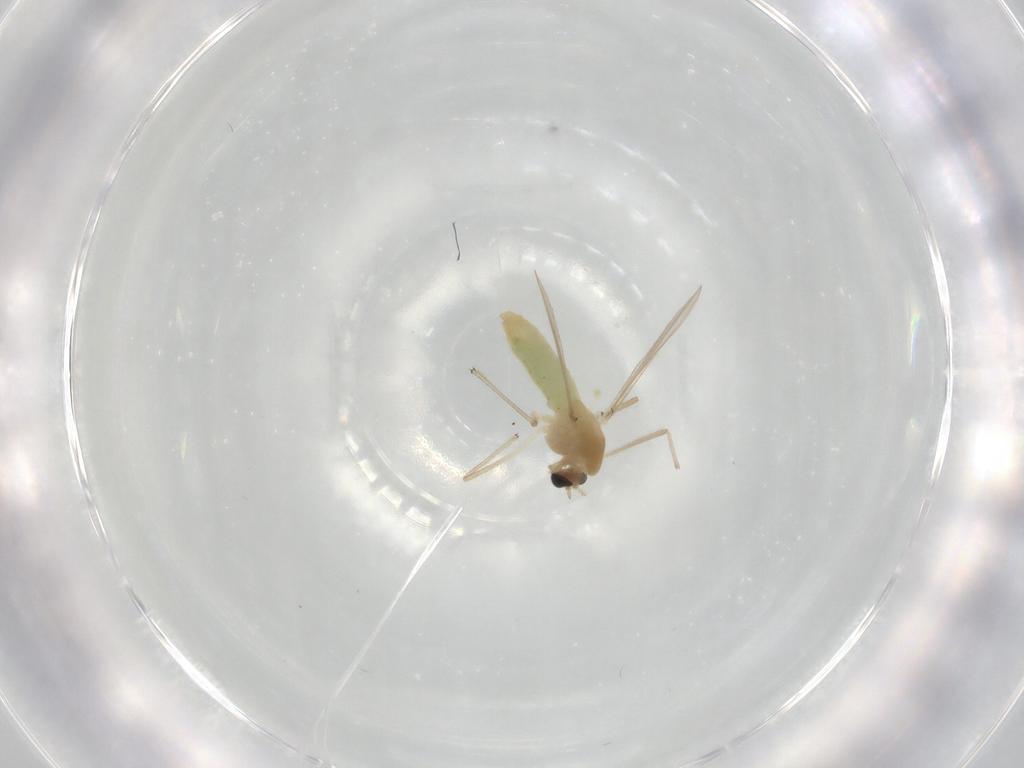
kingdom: Animalia
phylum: Arthropoda
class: Insecta
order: Diptera
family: Chironomidae
